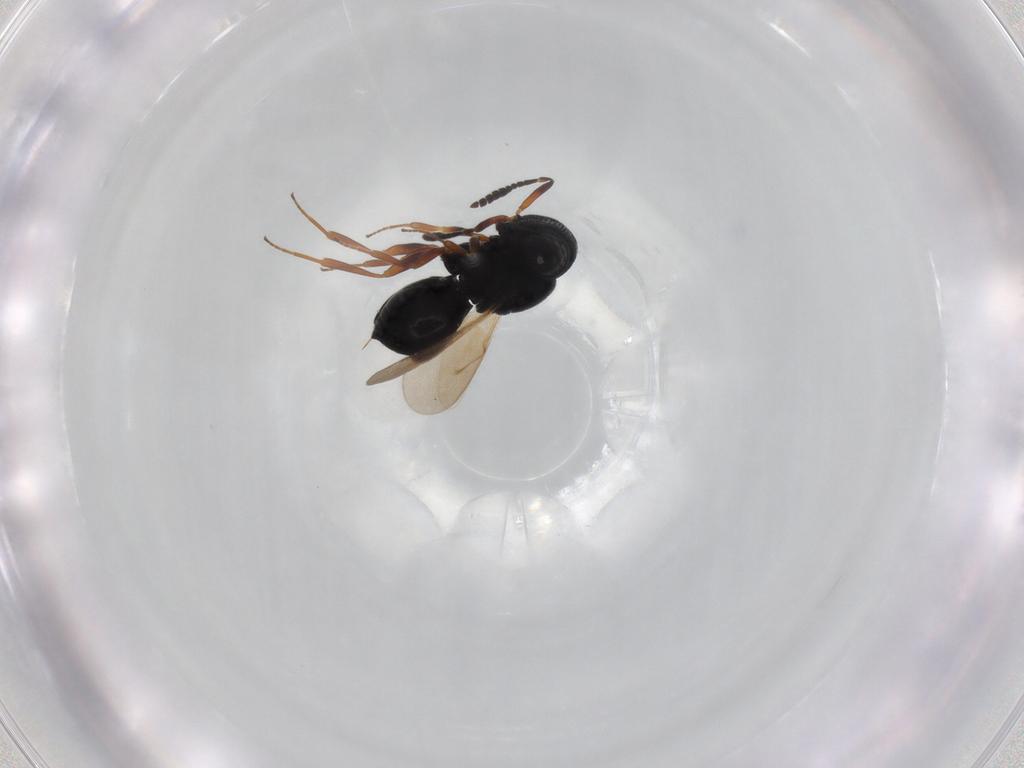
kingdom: Animalia
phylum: Arthropoda
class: Insecta
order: Hymenoptera
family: Scelionidae
